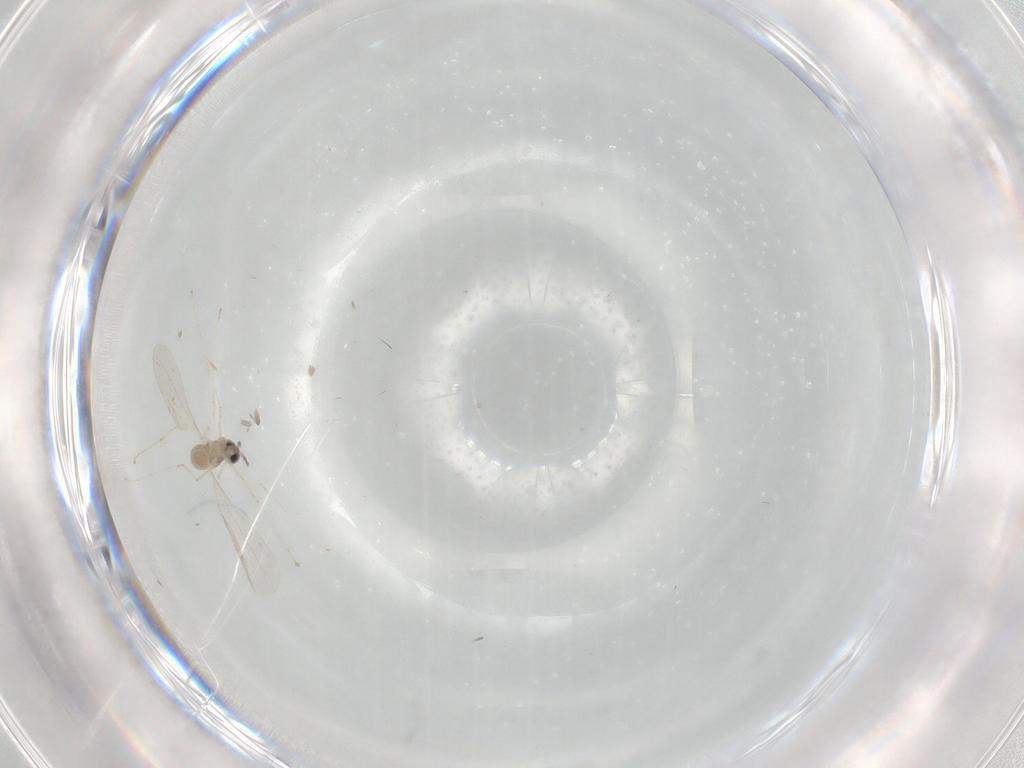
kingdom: Animalia
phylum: Arthropoda
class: Insecta
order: Diptera
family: Cecidomyiidae
